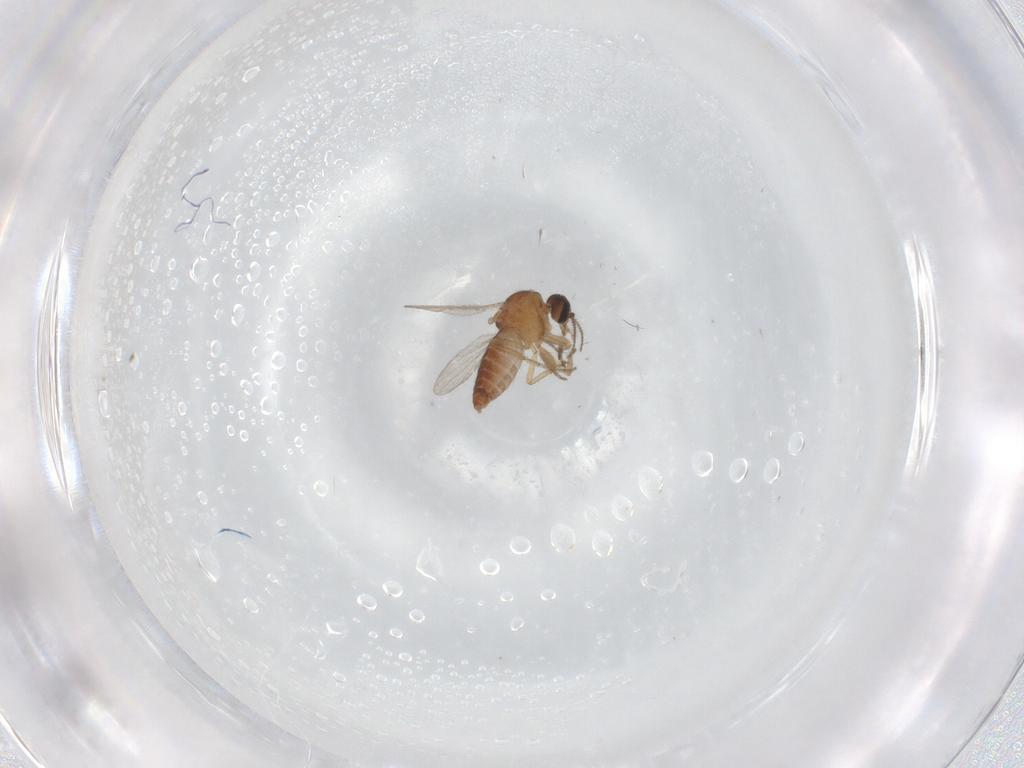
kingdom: Animalia
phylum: Arthropoda
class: Insecta
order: Diptera
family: Ceratopogonidae
